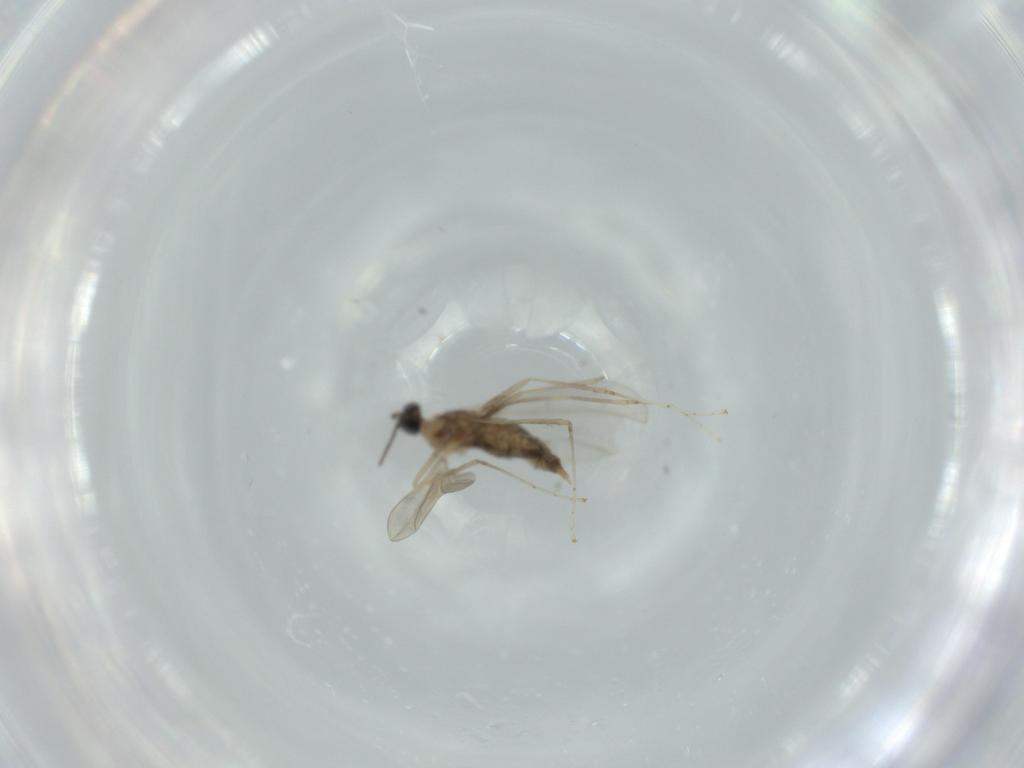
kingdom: Animalia
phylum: Arthropoda
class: Insecta
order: Diptera
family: Cecidomyiidae
